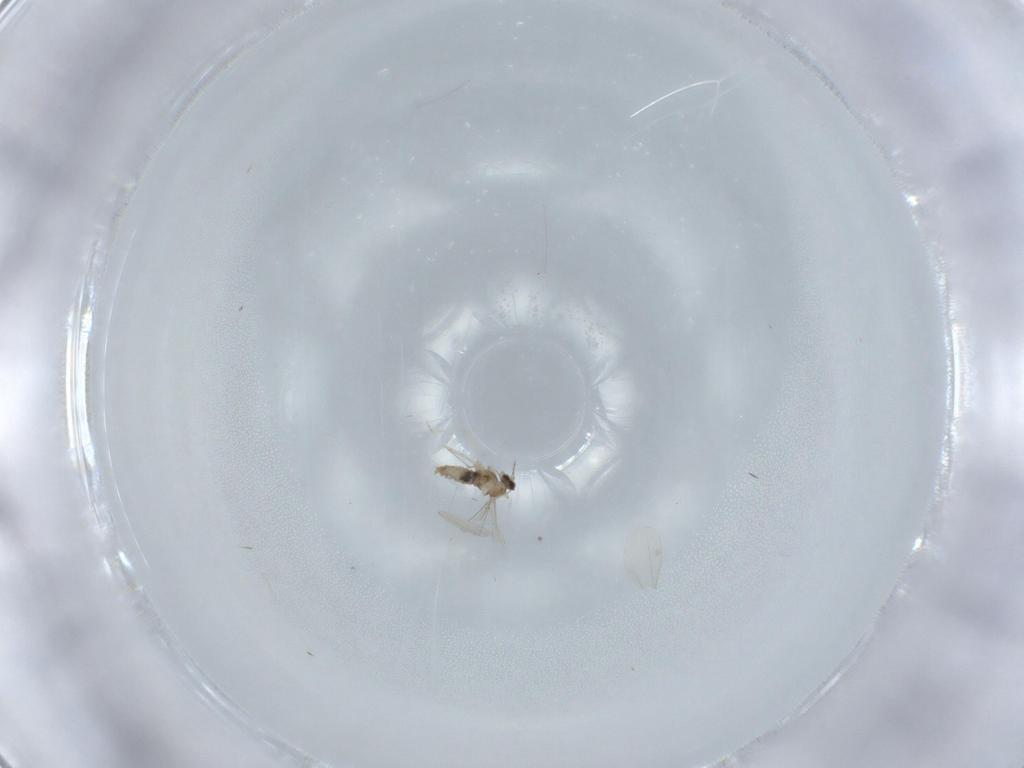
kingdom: Animalia
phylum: Arthropoda
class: Insecta
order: Diptera
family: Cecidomyiidae
